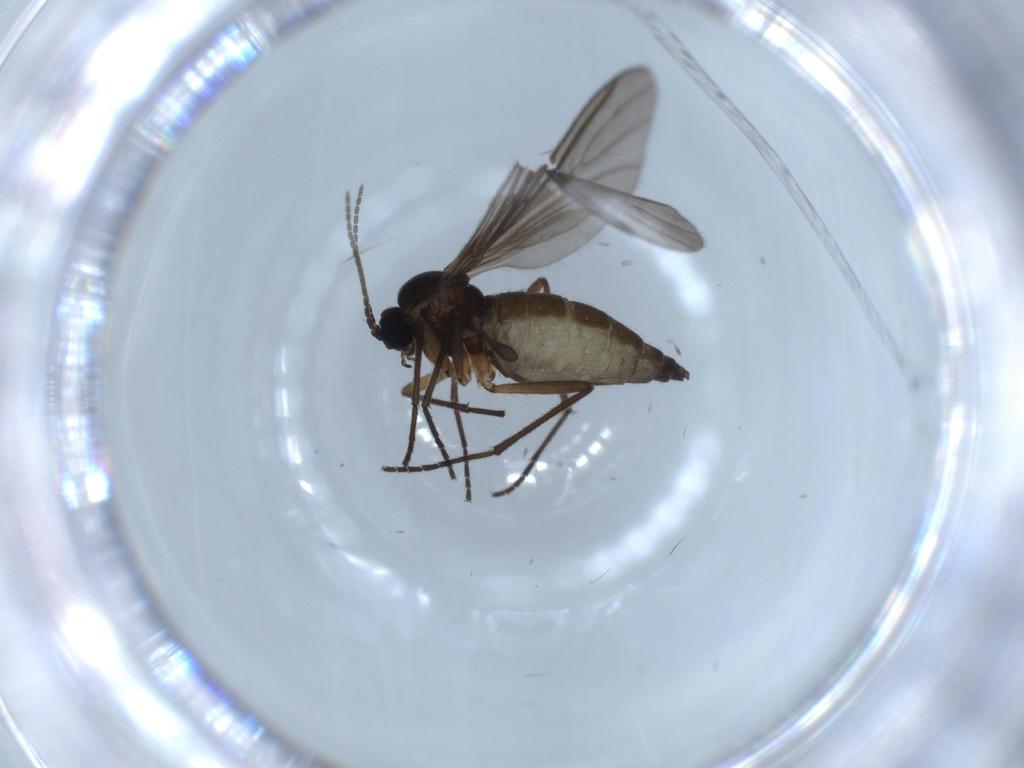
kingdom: Animalia
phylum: Arthropoda
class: Insecta
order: Diptera
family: Sciaridae
